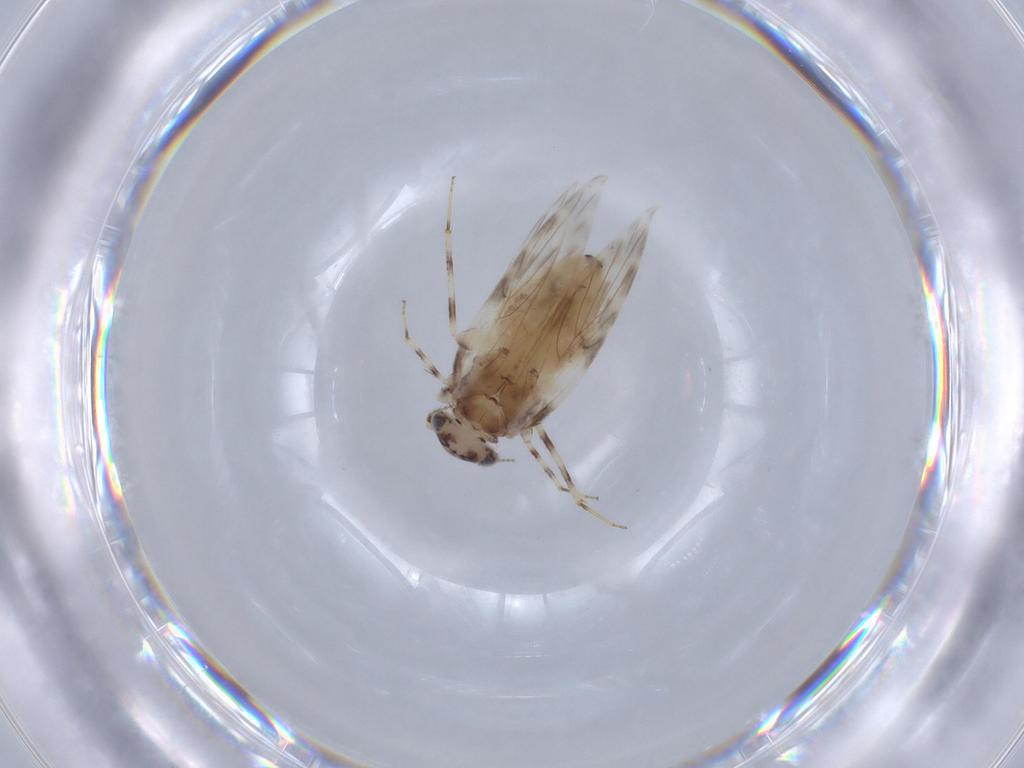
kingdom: Animalia
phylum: Arthropoda
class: Insecta
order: Psocodea
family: Lepidopsocidae
